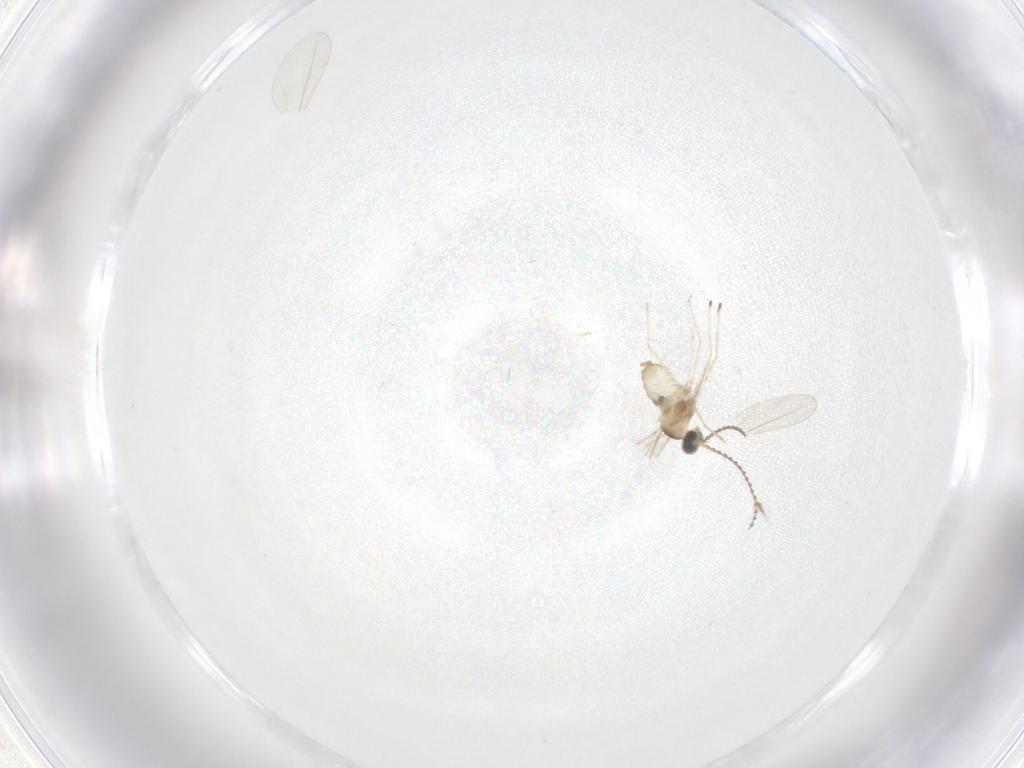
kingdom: Animalia
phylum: Arthropoda
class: Insecta
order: Diptera
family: Cecidomyiidae
